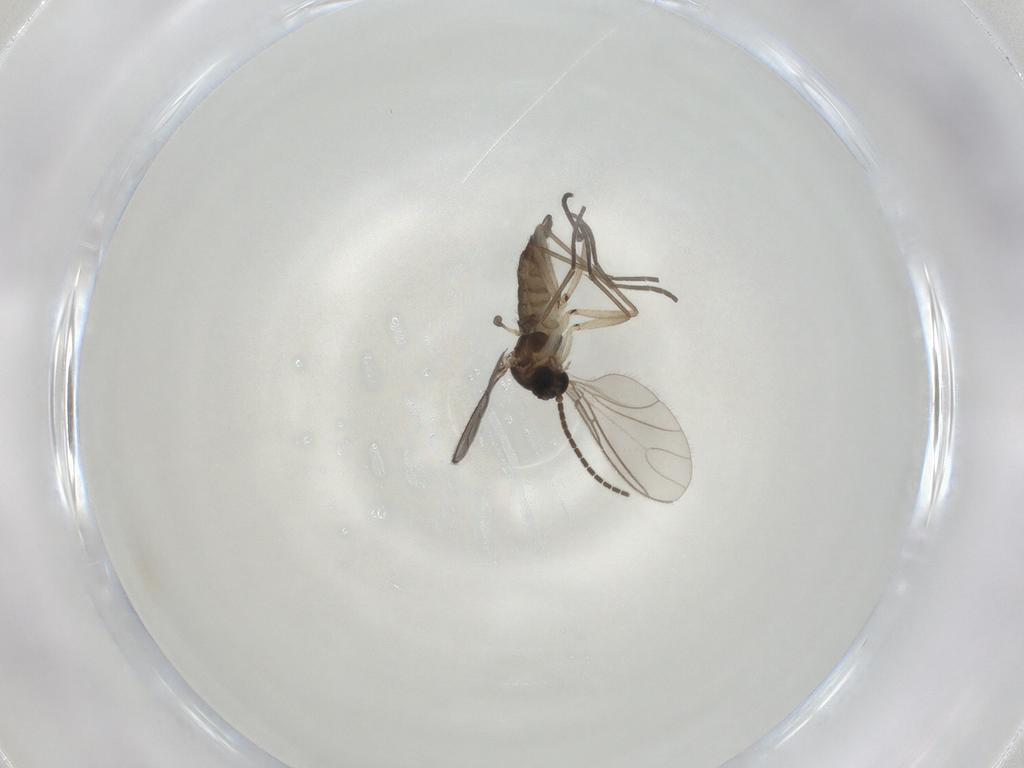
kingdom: Animalia
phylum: Arthropoda
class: Insecta
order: Diptera
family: Sciaridae
